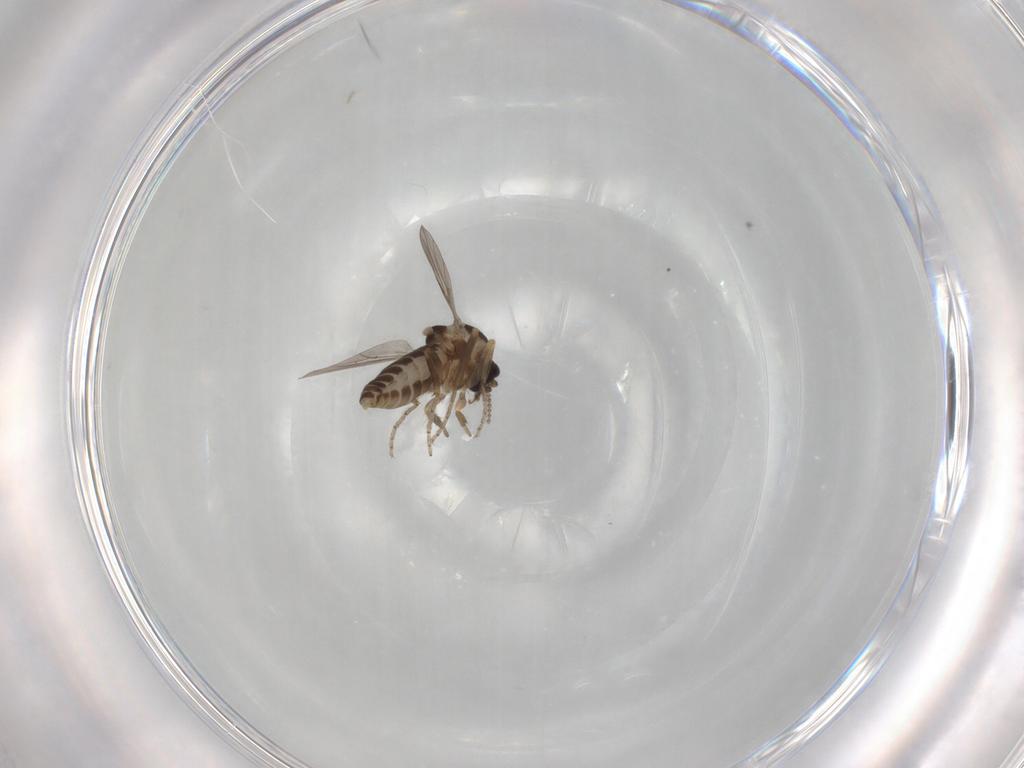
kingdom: Animalia
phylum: Arthropoda
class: Insecta
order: Diptera
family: Ceratopogonidae
